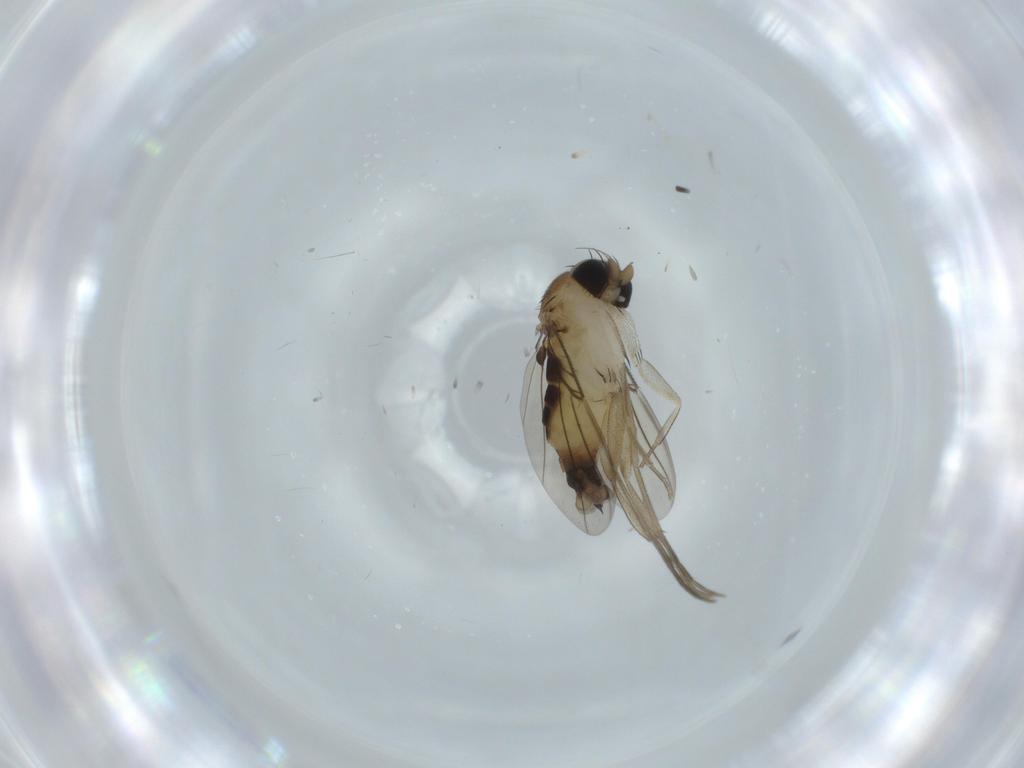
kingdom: Animalia
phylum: Arthropoda
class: Insecta
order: Diptera
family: Phoridae
